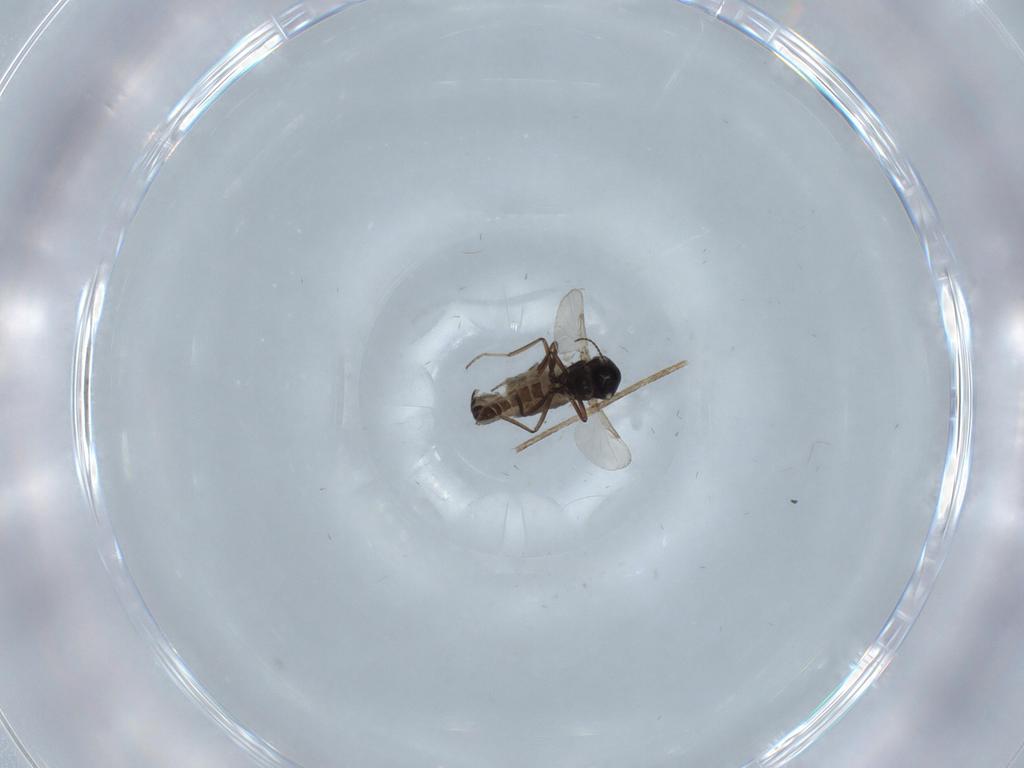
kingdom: Animalia
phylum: Arthropoda
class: Insecta
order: Diptera
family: Ceratopogonidae
